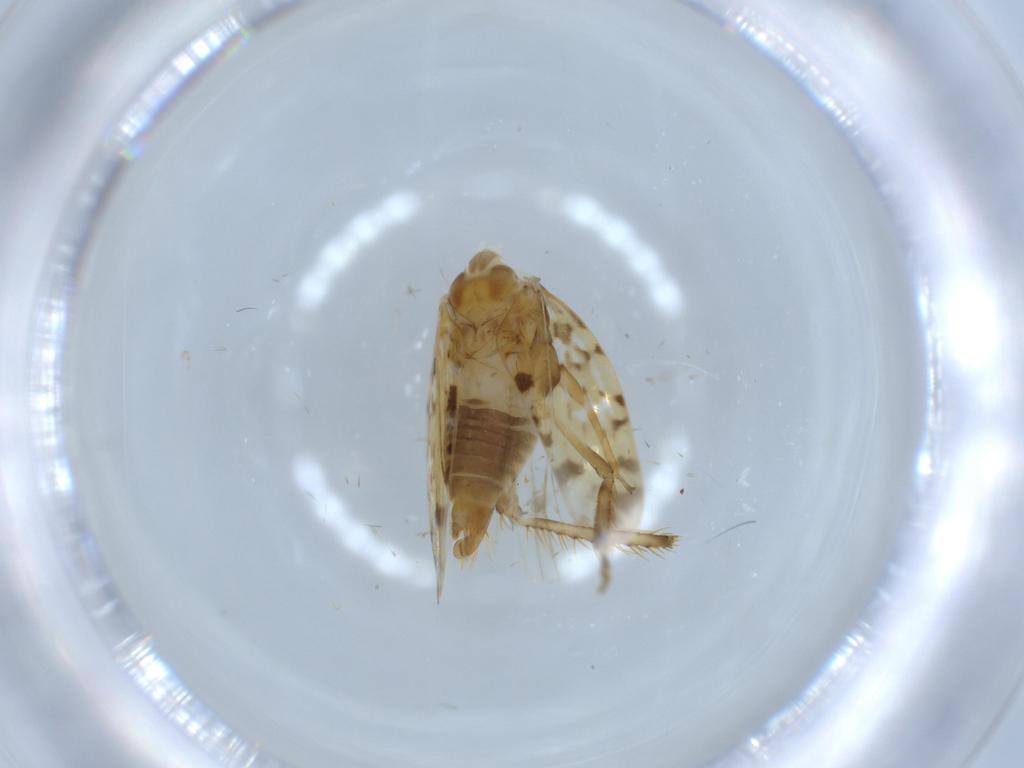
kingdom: Animalia
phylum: Arthropoda
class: Insecta
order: Hemiptera
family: Cicadellidae
